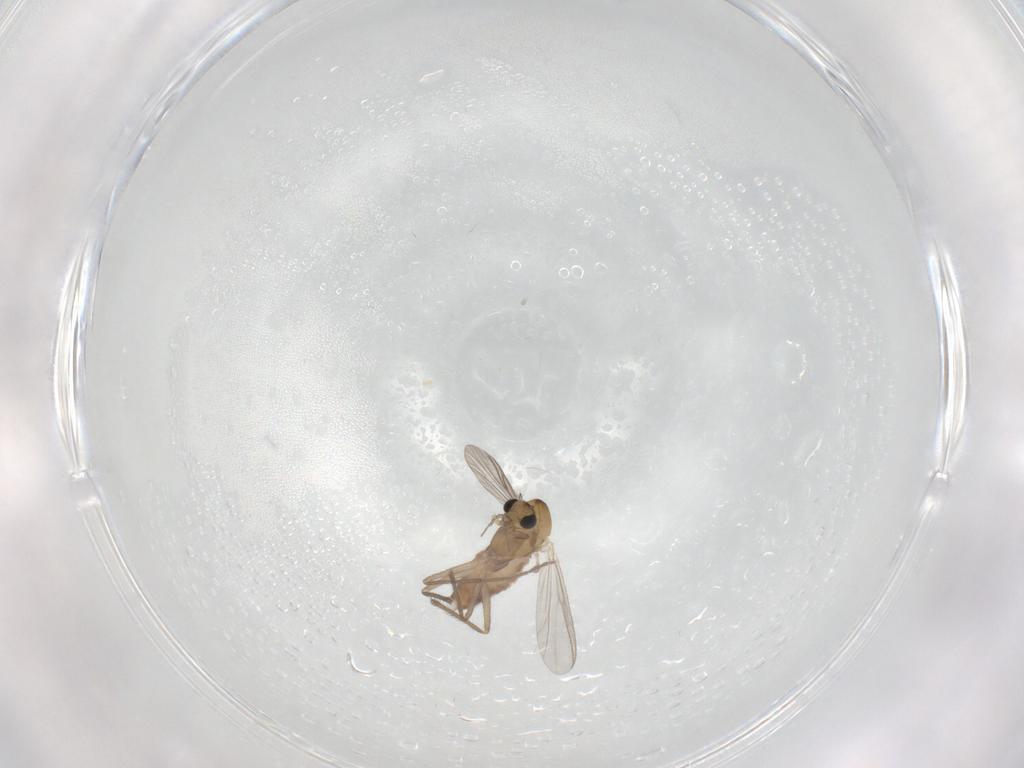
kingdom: Animalia
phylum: Arthropoda
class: Insecta
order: Diptera
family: Chironomidae
